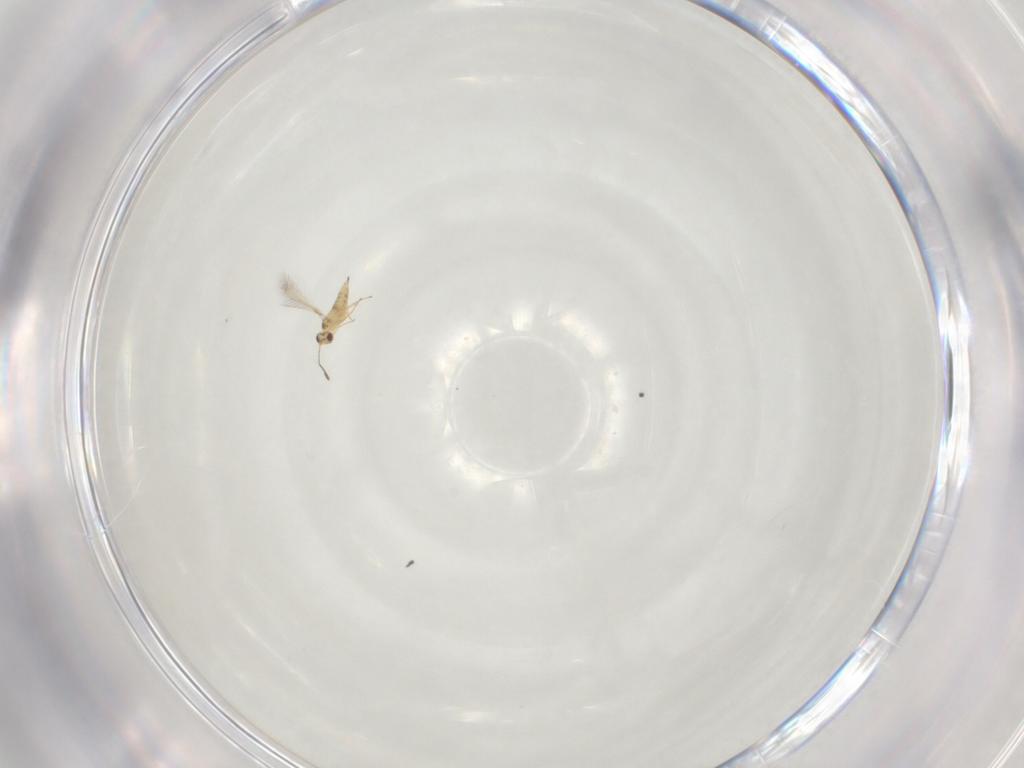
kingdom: Animalia
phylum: Arthropoda
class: Insecta
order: Hymenoptera
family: Mymaridae
